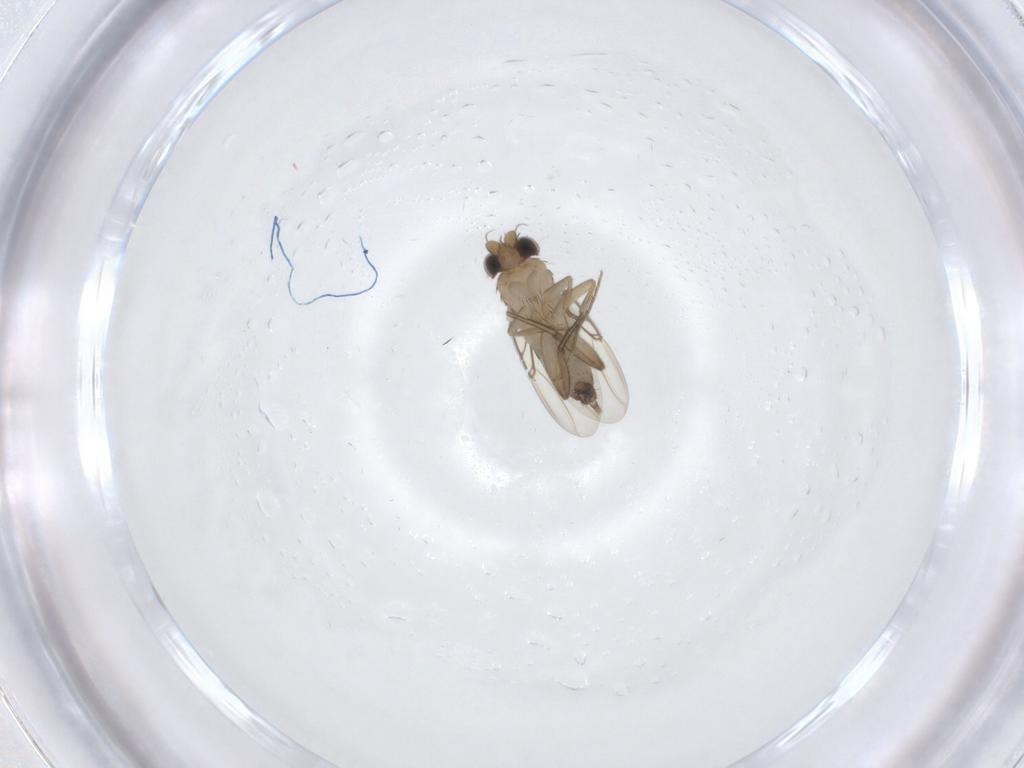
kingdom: Animalia
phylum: Arthropoda
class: Insecta
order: Diptera
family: Phoridae
